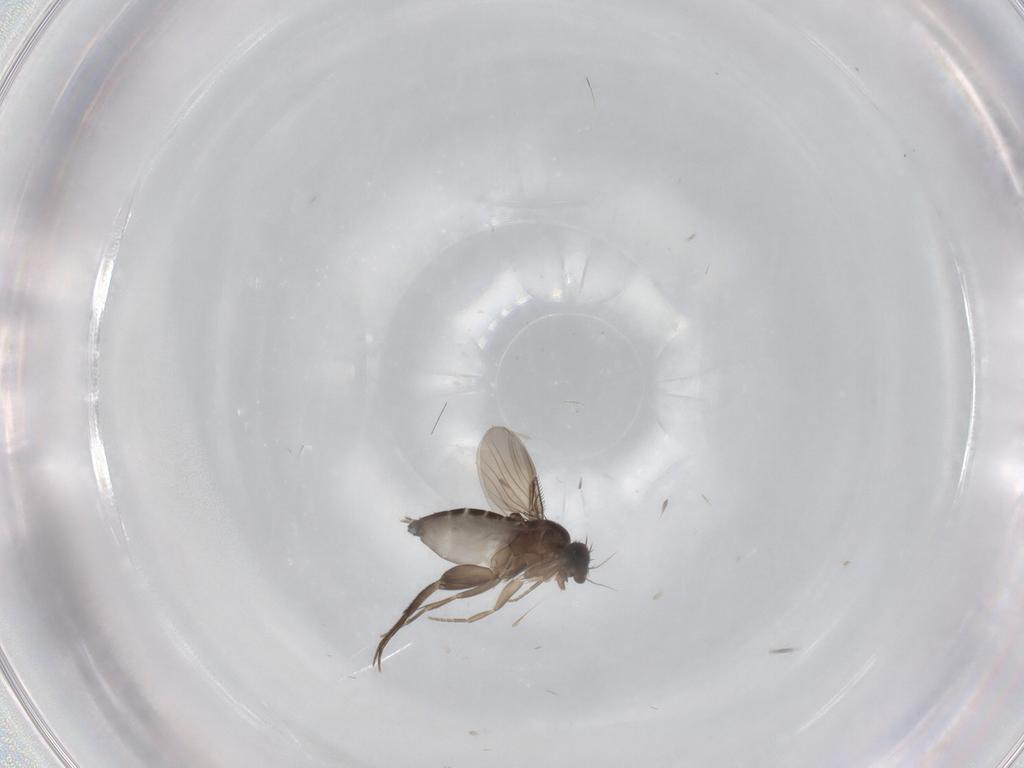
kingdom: Animalia
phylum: Arthropoda
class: Insecta
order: Diptera
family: Phoridae
